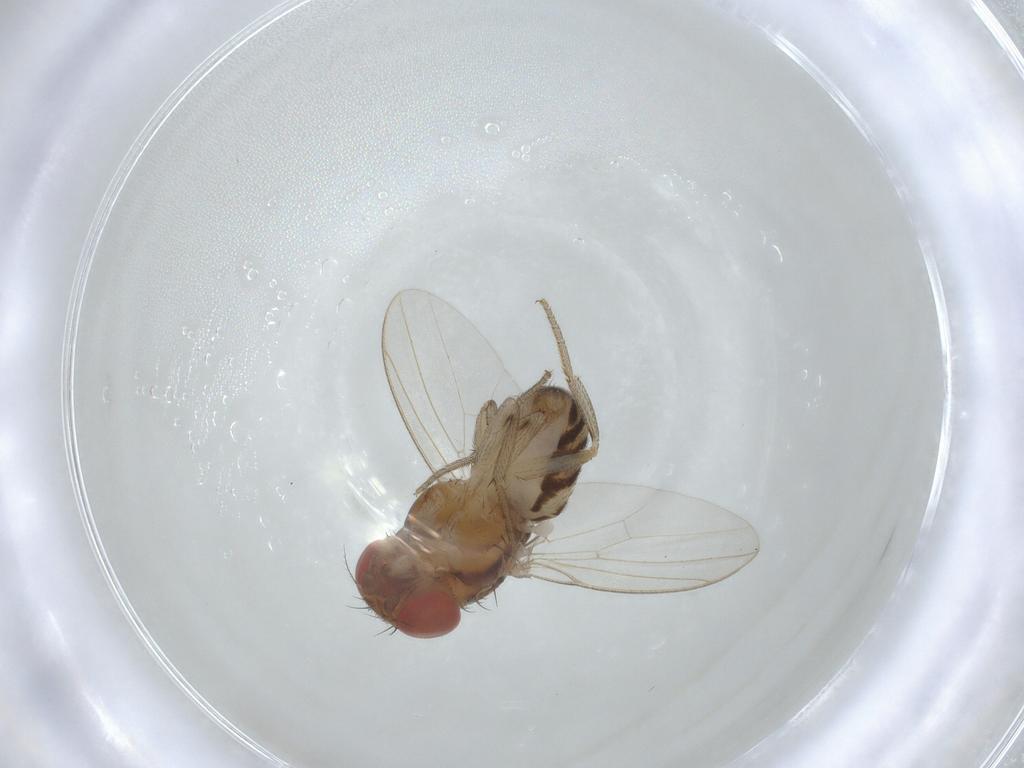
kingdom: Animalia
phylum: Arthropoda
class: Insecta
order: Diptera
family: Drosophilidae
